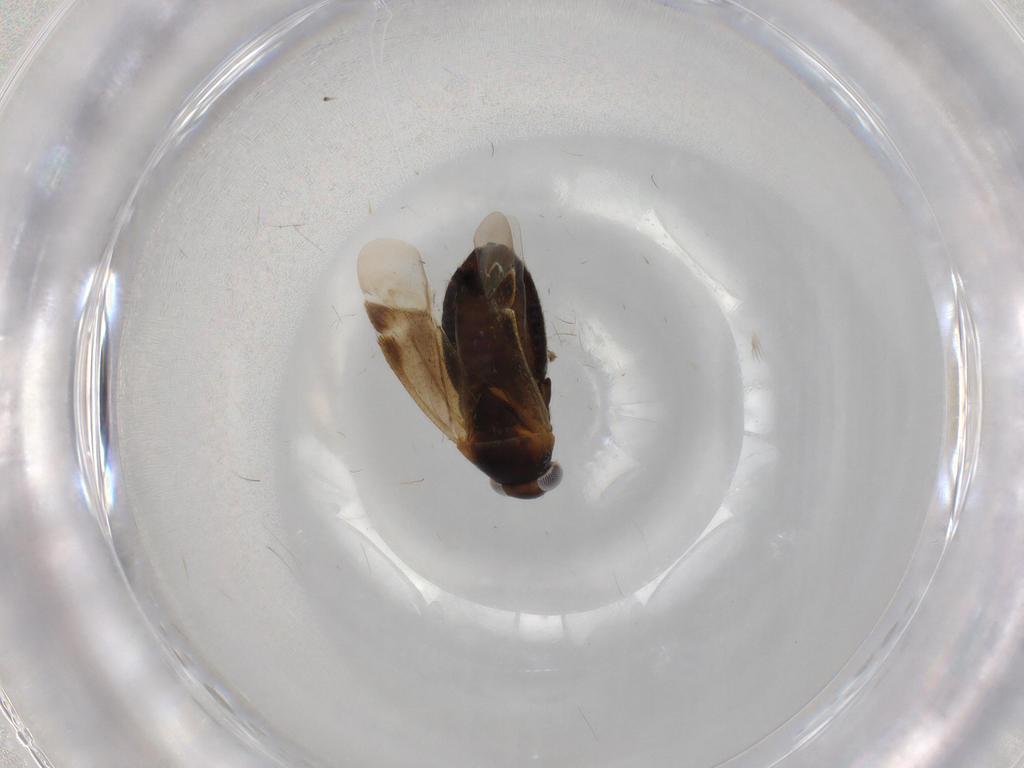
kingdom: Animalia
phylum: Arthropoda
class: Insecta
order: Hemiptera
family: Miridae
